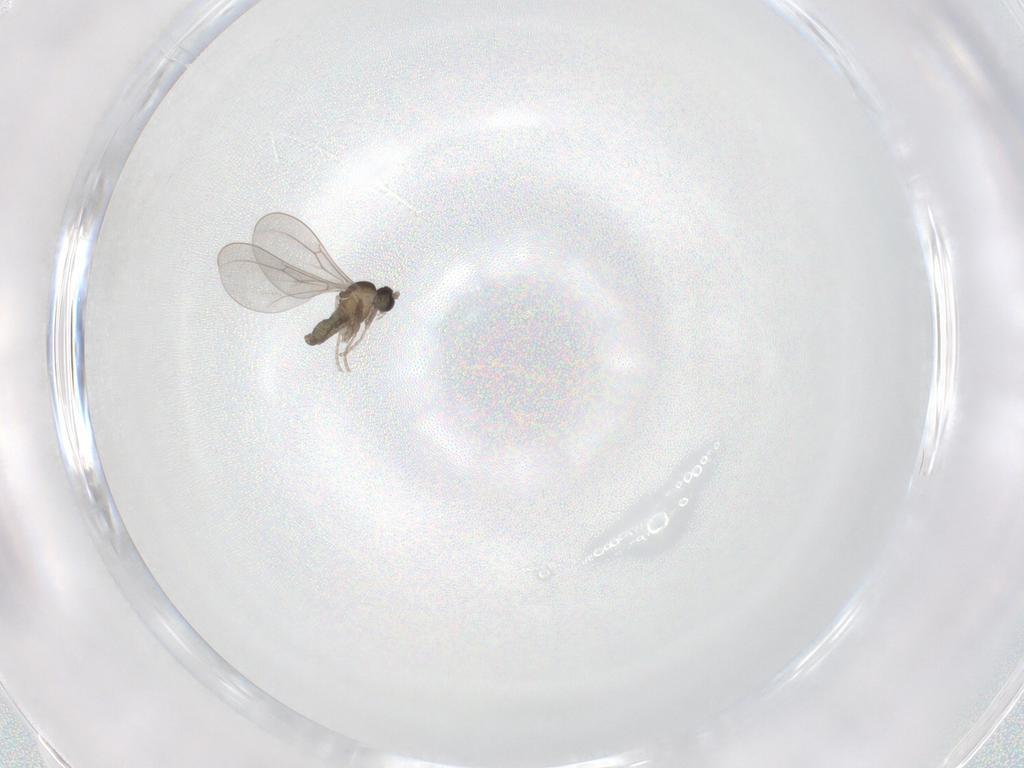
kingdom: Animalia
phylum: Arthropoda
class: Insecta
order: Diptera
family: Cecidomyiidae
